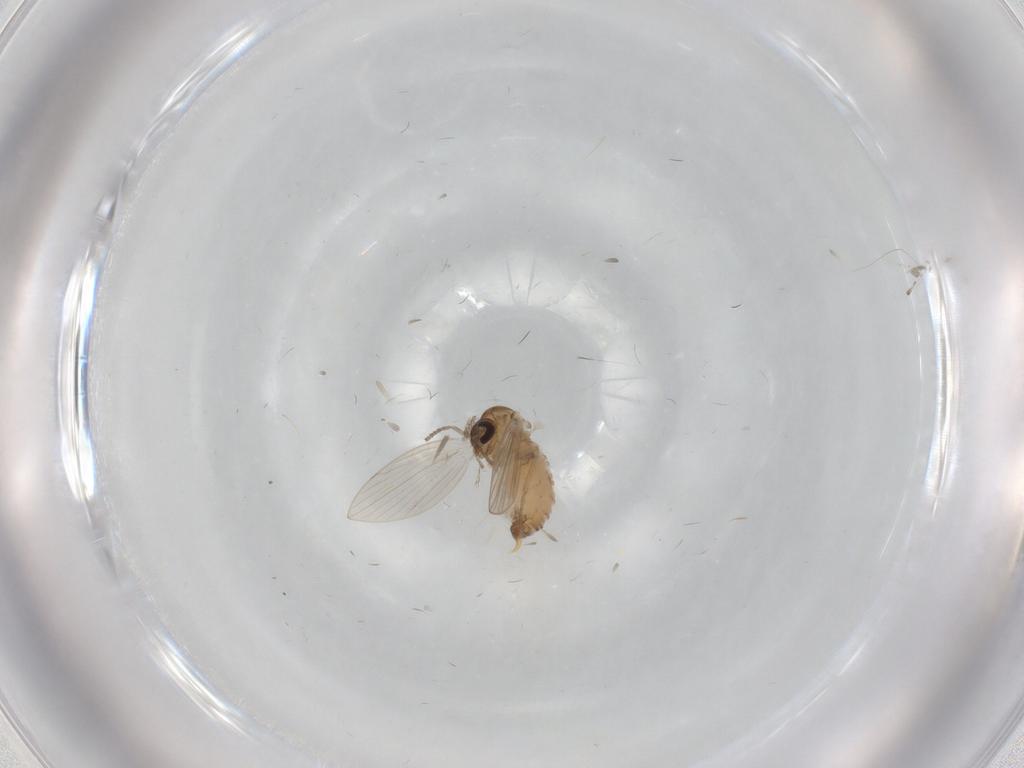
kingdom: Animalia
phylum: Arthropoda
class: Insecta
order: Diptera
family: Psychodidae
